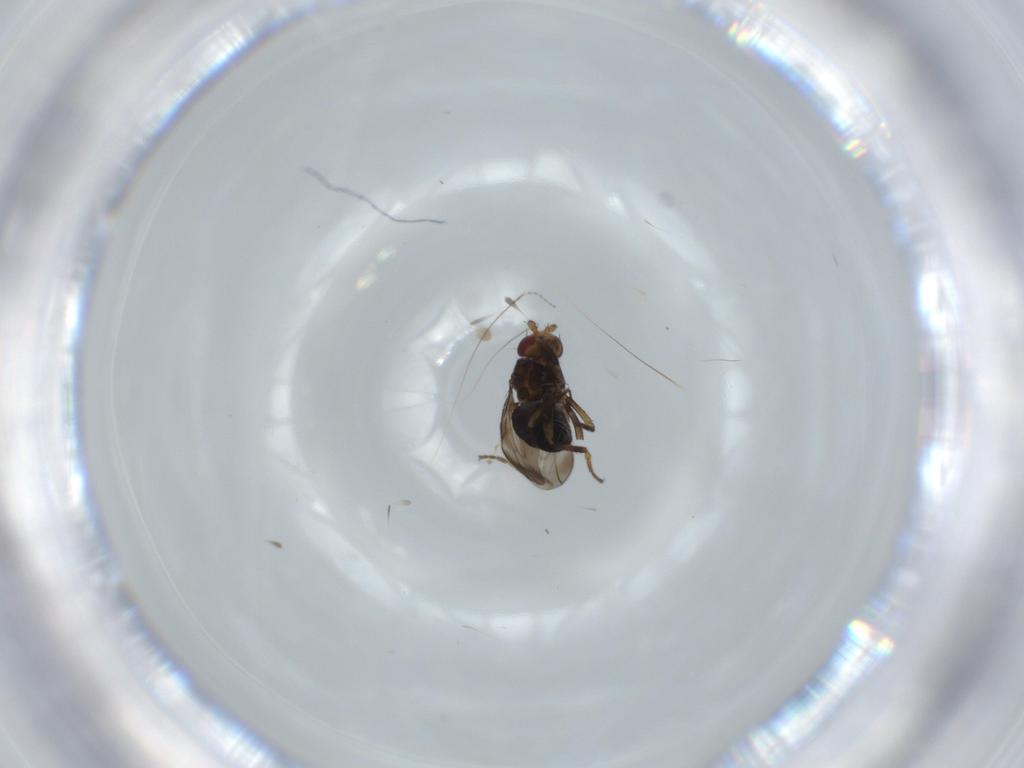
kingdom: Animalia
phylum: Arthropoda
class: Insecta
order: Diptera
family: Sphaeroceridae
